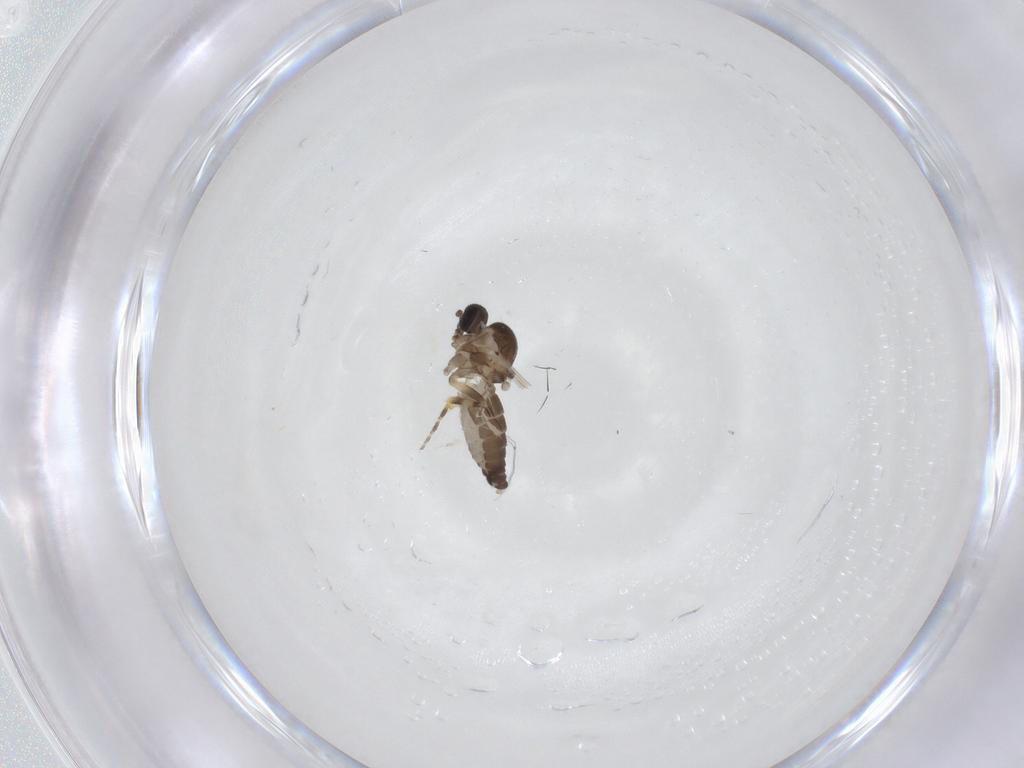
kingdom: Animalia
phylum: Arthropoda
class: Insecta
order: Diptera
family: Ceratopogonidae
